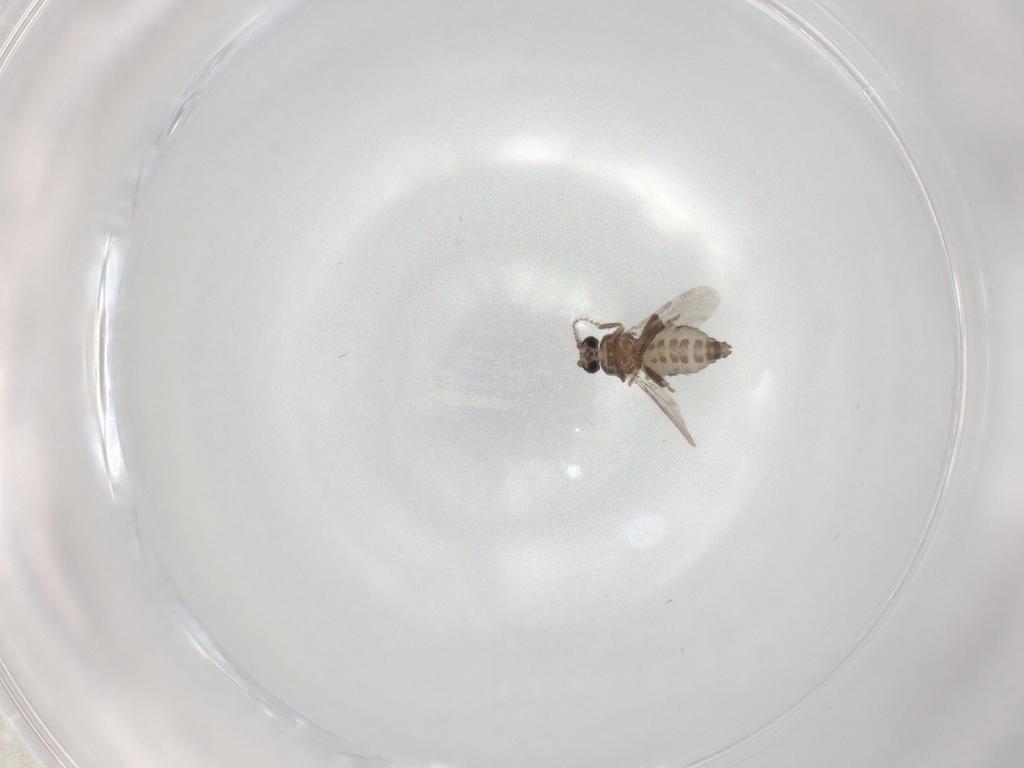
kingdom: Animalia
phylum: Arthropoda
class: Insecta
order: Diptera
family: Ceratopogonidae
